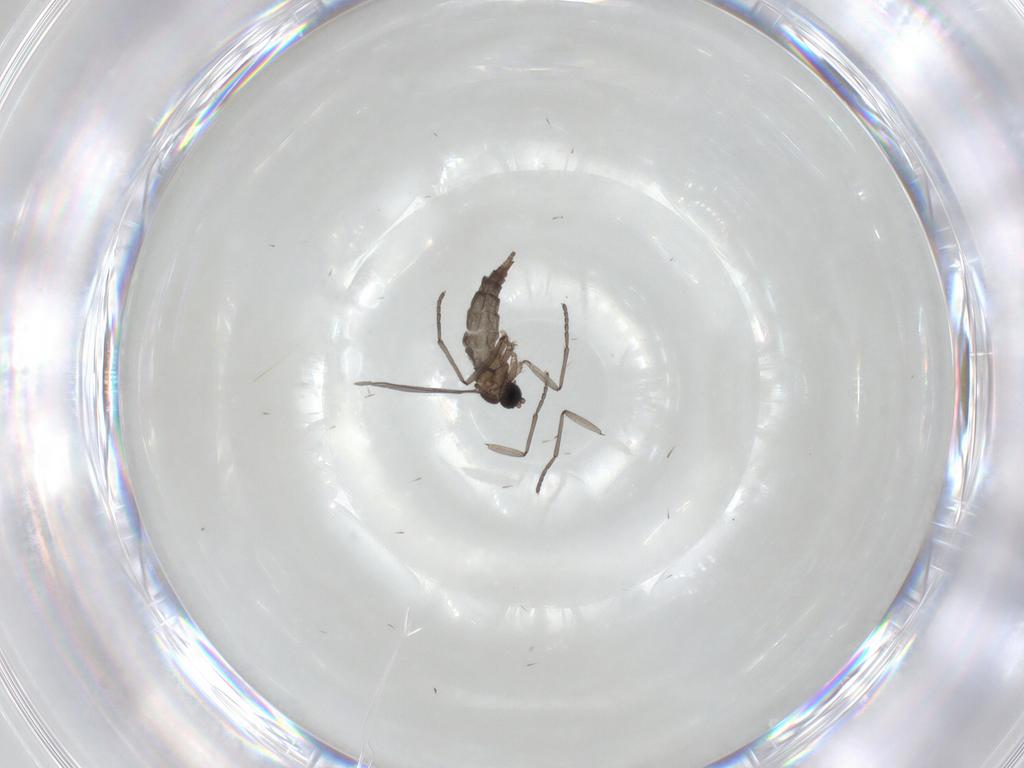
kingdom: Animalia
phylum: Arthropoda
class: Insecta
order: Diptera
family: Sciaridae
